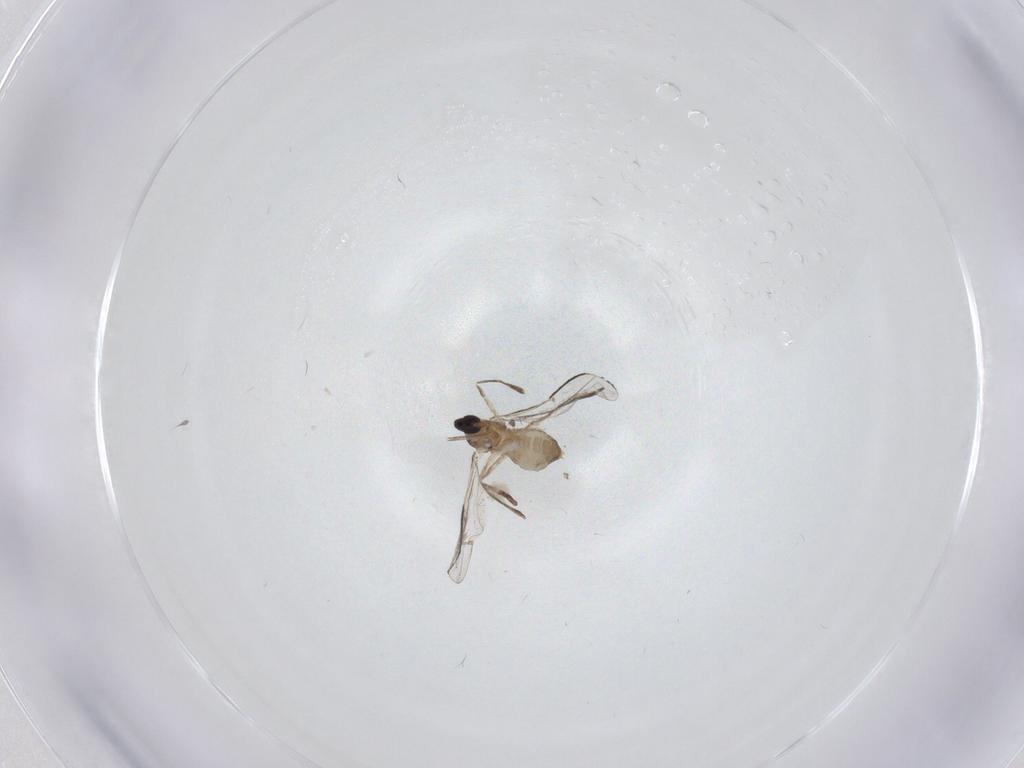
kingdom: Animalia
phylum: Arthropoda
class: Insecta
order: Diptera
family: Cecidomyiidae
